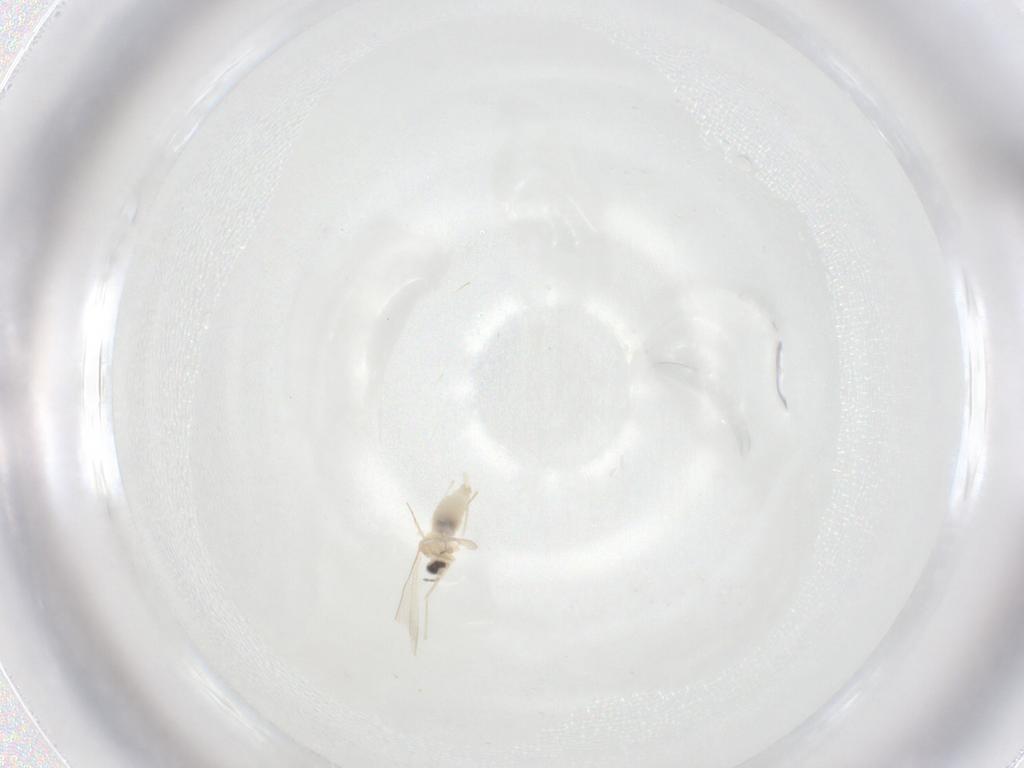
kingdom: Animalia
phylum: Arthropoda
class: Insecta
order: Diptera
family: Cecidomyiidae
